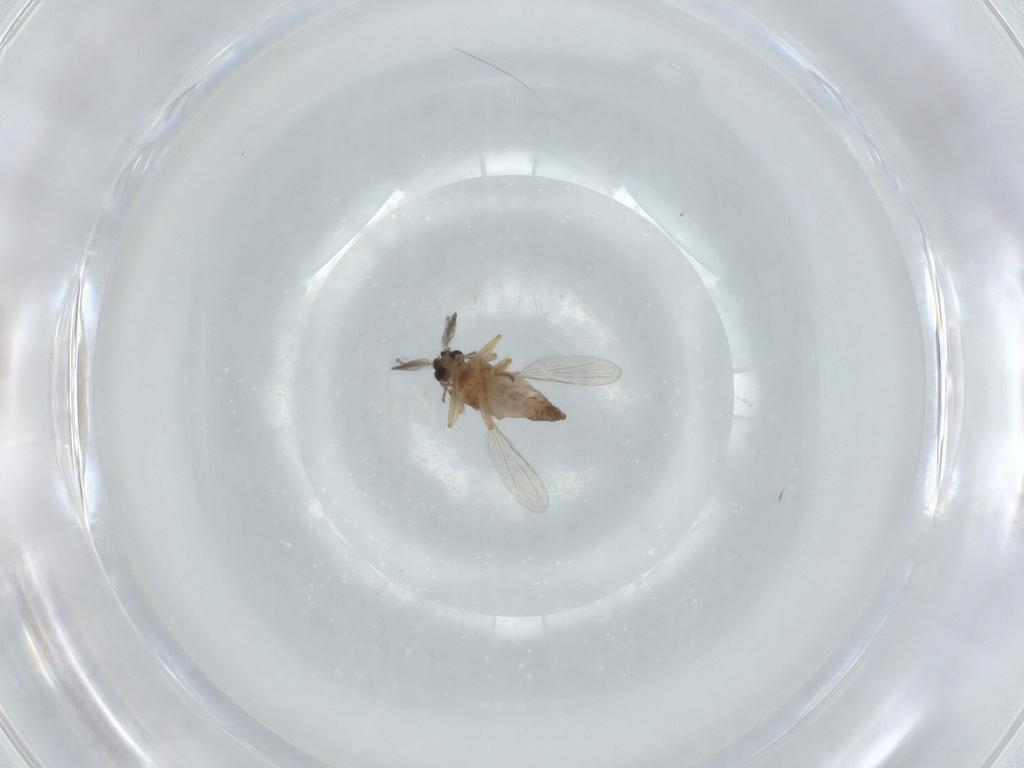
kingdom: Animalia
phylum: Arthropoda
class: Insecta
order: Diptera
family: Ceratopogonidae
